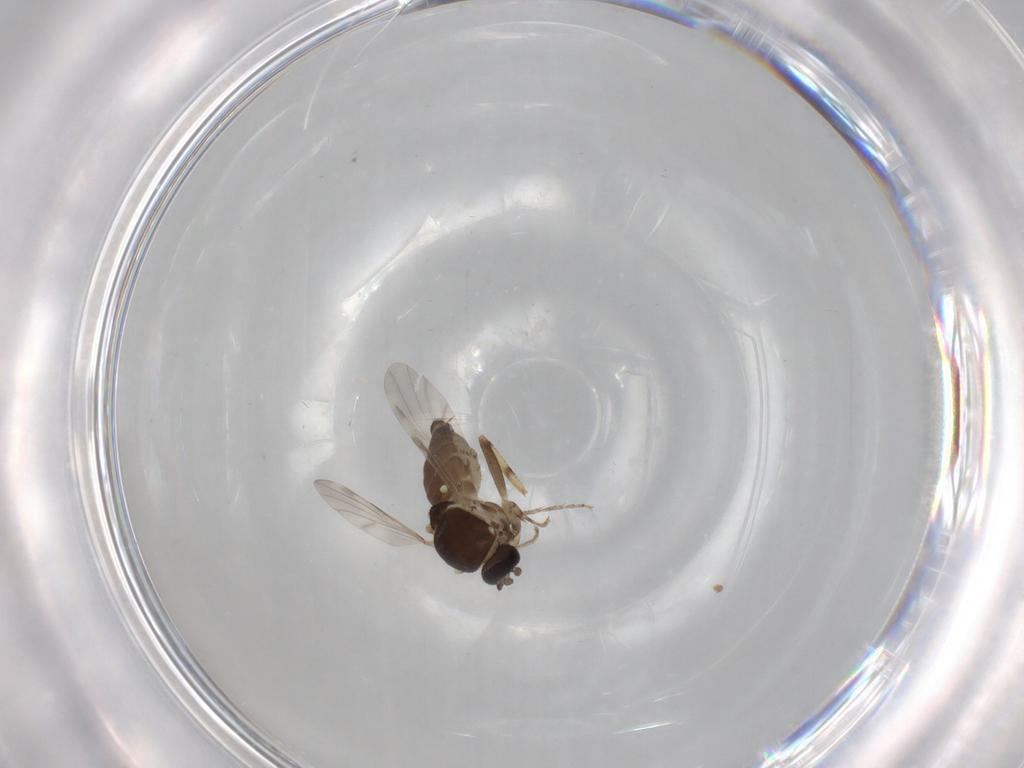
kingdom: Animalia
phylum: Arthropoda
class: Insecta
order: Diptera
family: Ceratopogonidae
